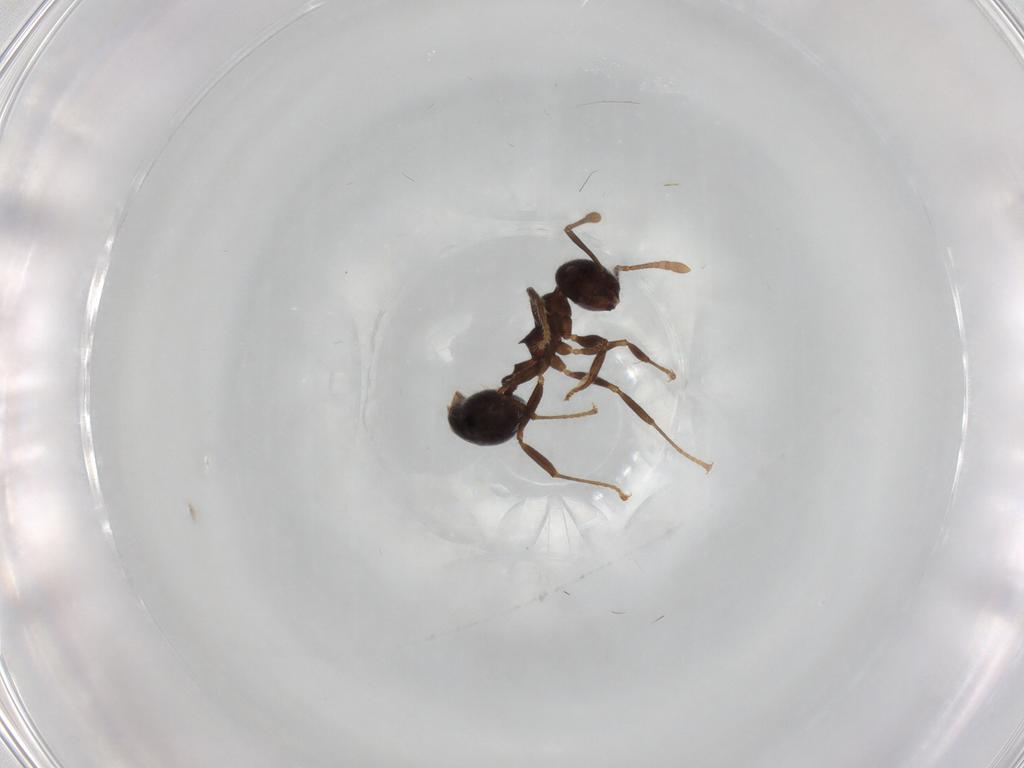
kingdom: Animalia
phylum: Arthropoda
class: Insecta
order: Hymenoptera
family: Formicidae
